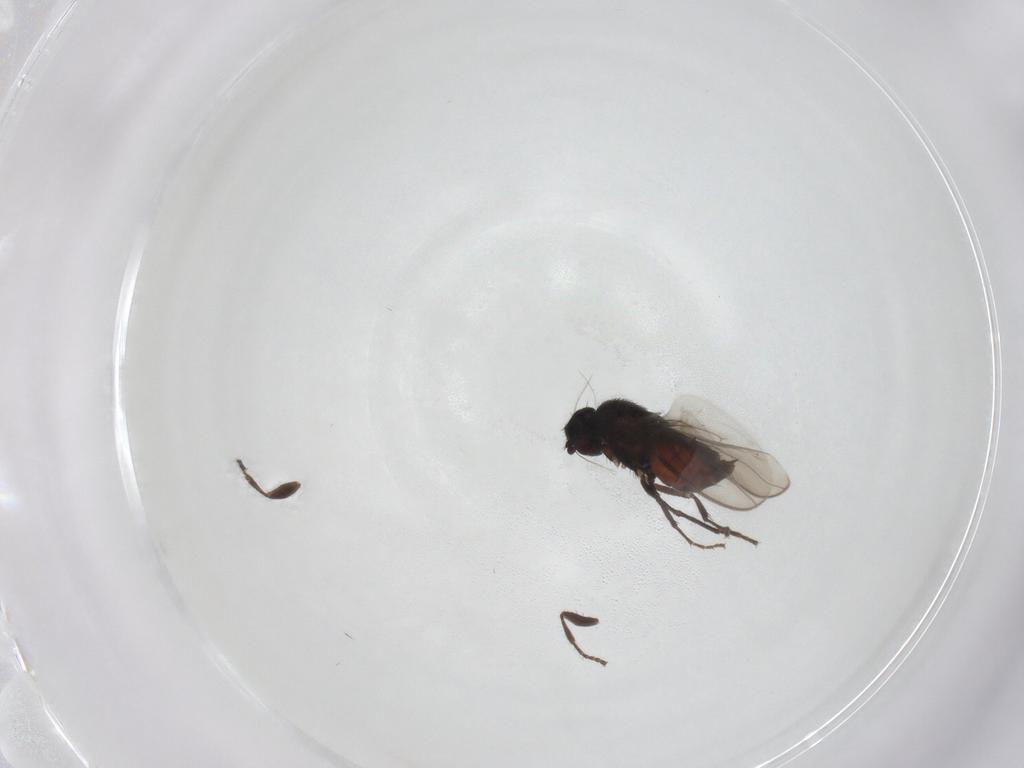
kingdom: Animalia
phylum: Arthropoda
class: Insecta
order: Diptera
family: Sphaeroceridae
